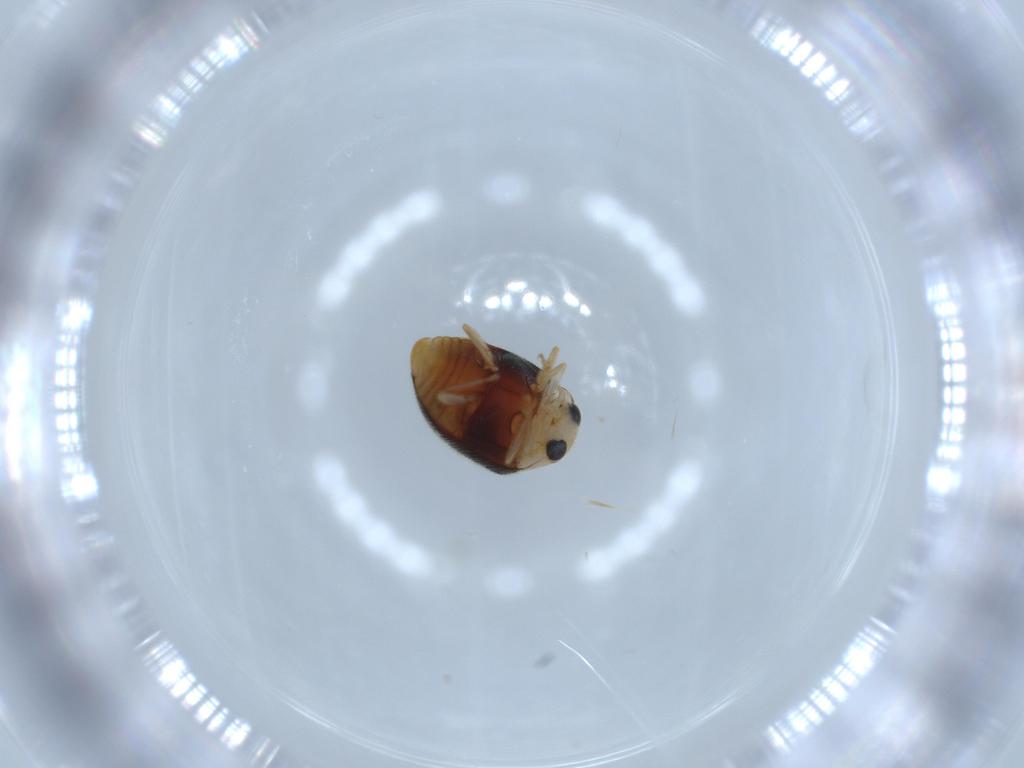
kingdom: Animalia
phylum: Arthropoda
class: Insecta
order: Coleoptera
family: Coccinellidae
